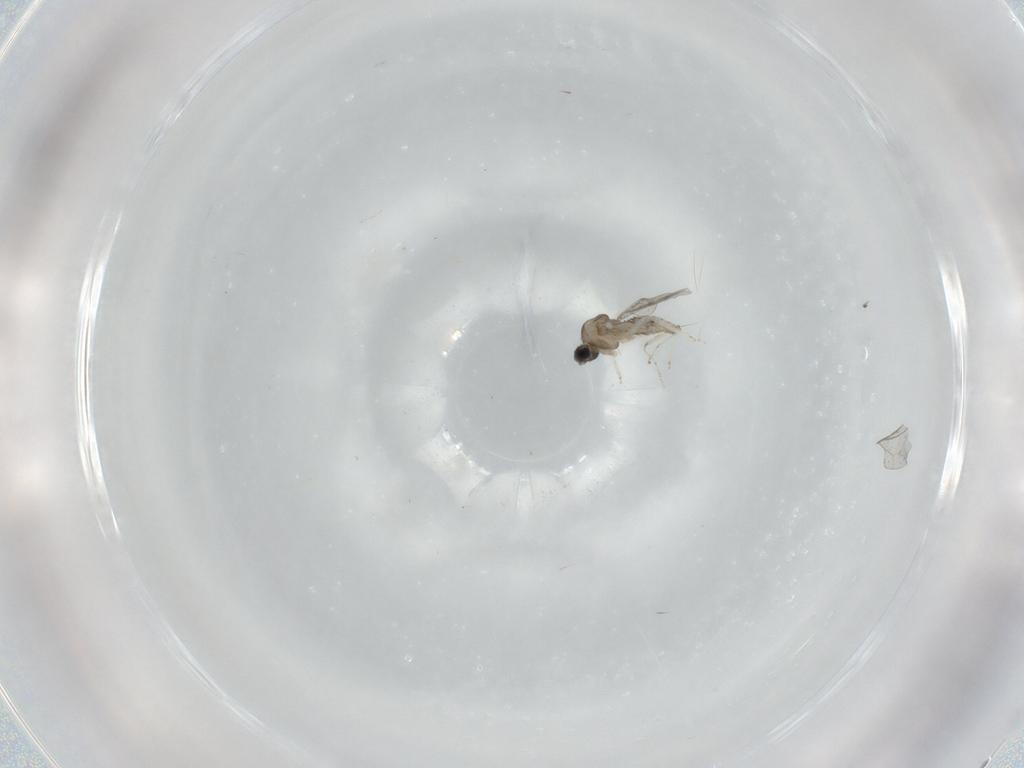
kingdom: Animalia
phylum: Arthropoda
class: Insecta
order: Diptera
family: Cecidomyiidae
